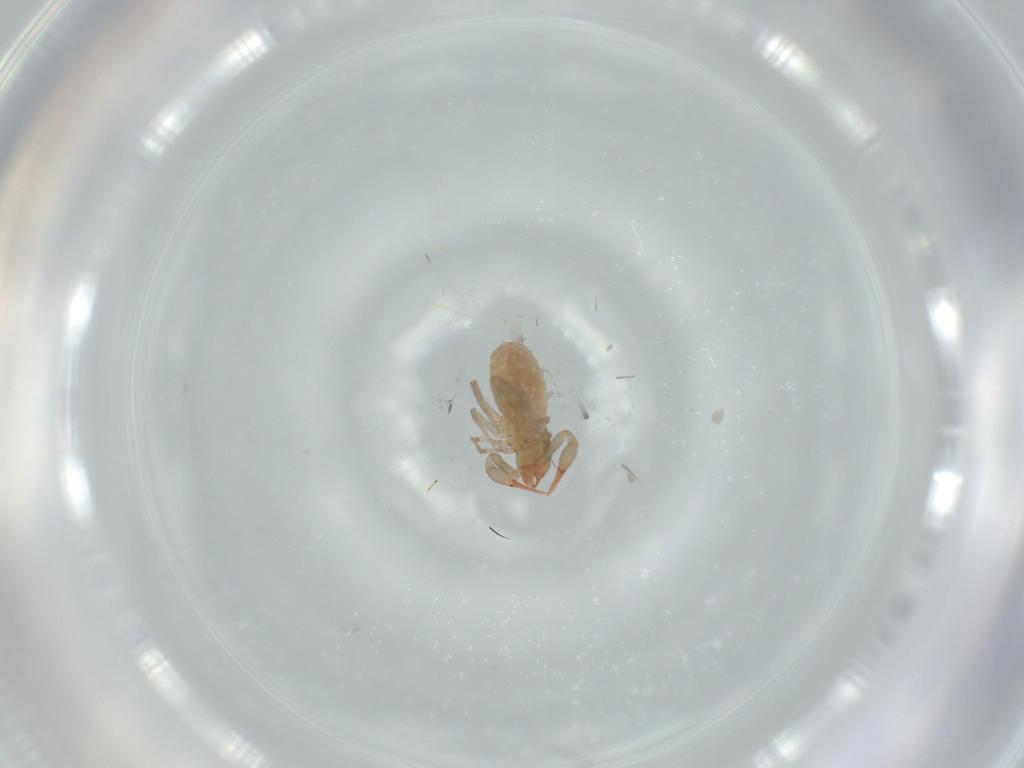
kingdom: Animalia
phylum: Arthropoda
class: Arachnida
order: Pseudoscorpiones
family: Chthoniidae
